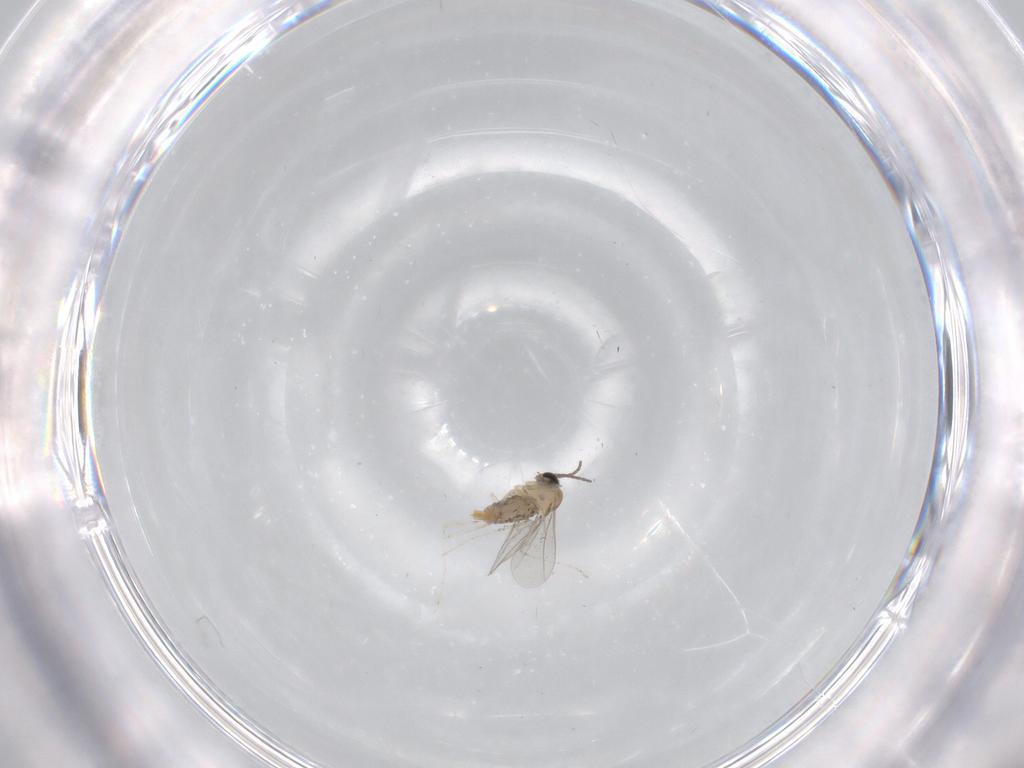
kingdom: Animalia
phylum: Arthropoda
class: Insecta
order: Diptera
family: Cecidomyiidae
